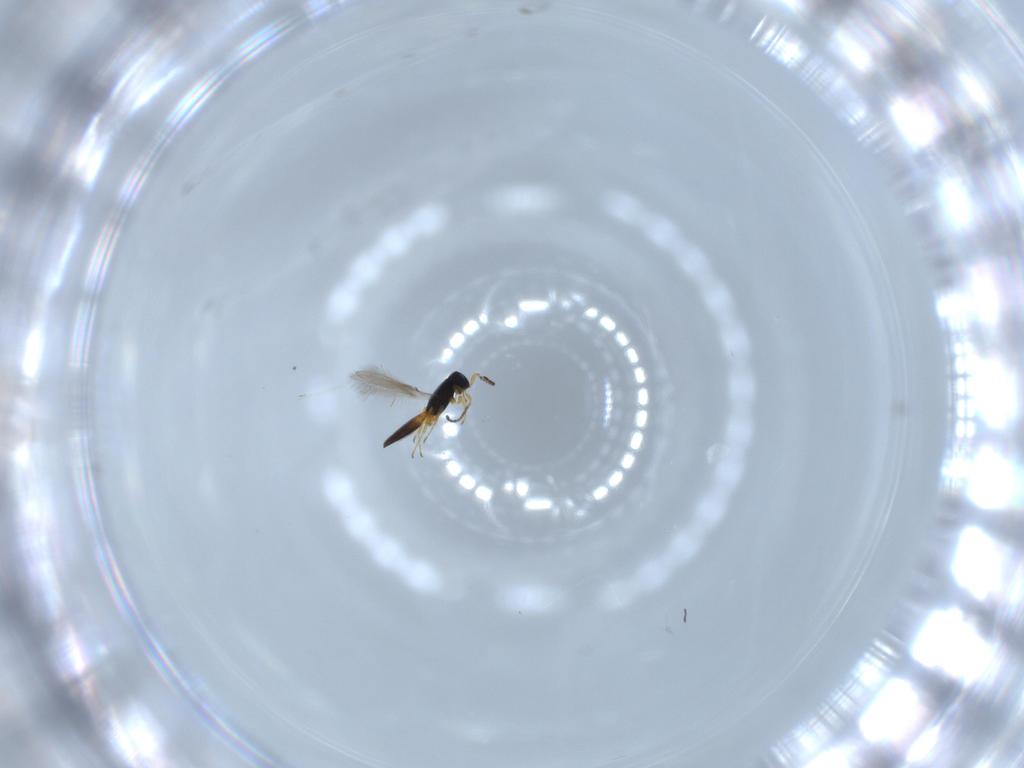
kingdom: Animalia
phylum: Arthropoda
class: Insecta
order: Hymenoptera
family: Scelionidae
